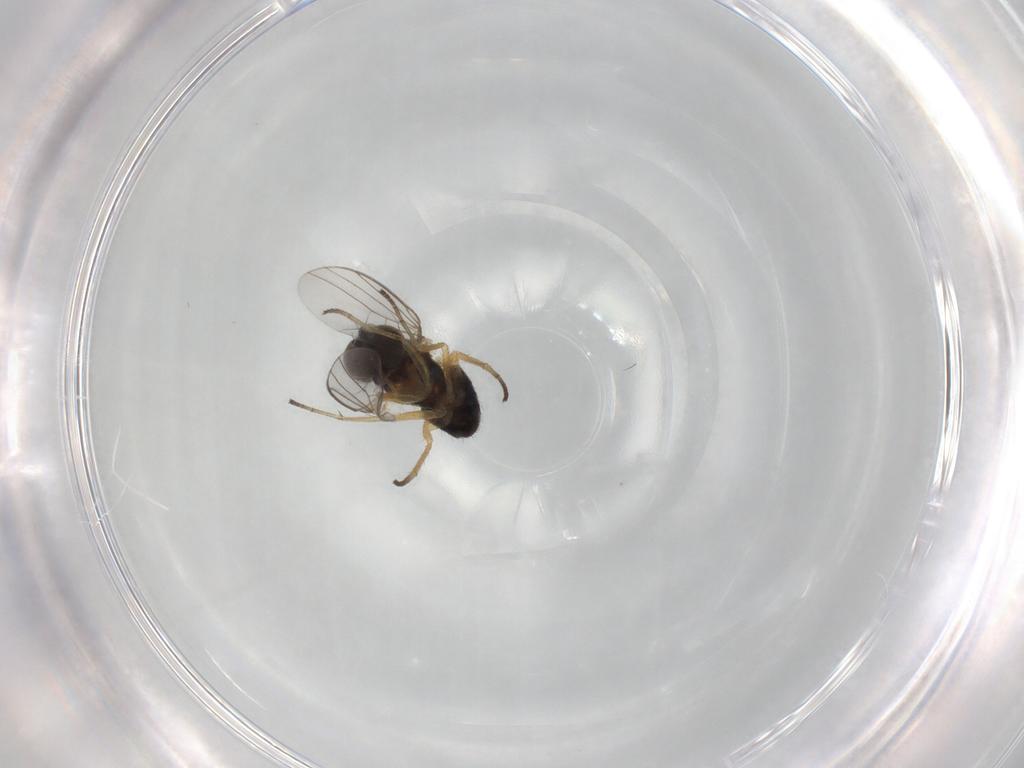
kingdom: Animalia
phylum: Arthropoda
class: Insecta
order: Diptera
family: Dolichopodidae
